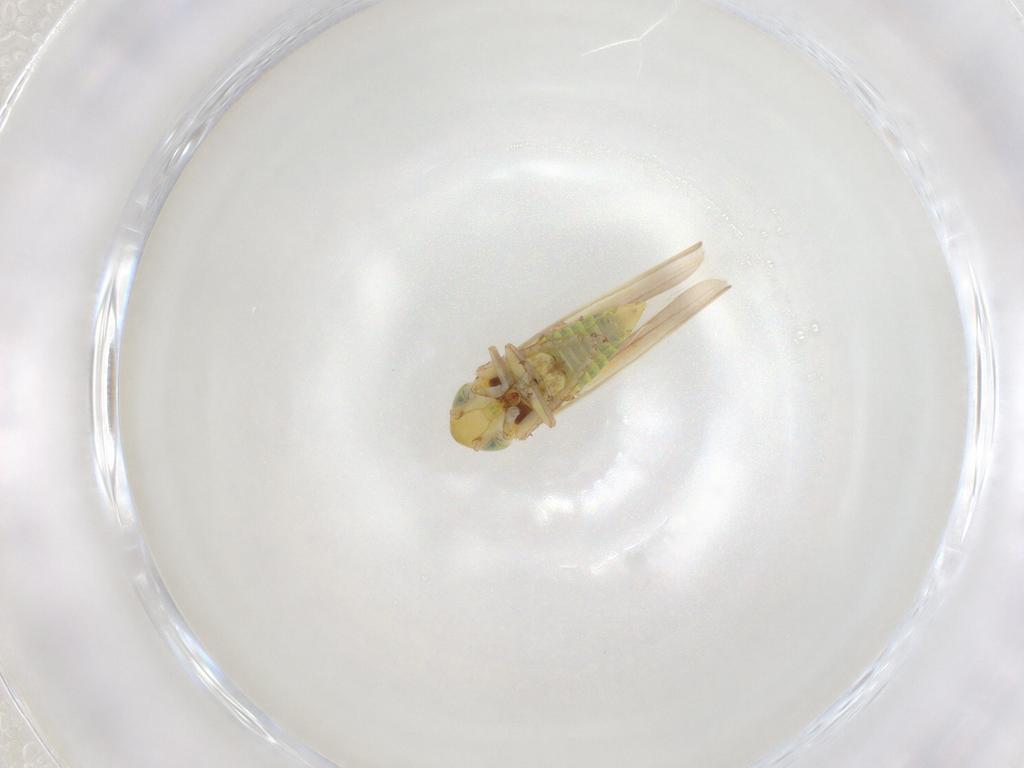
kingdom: Animalia
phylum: Arthropoda
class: Insecta
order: Hemiptera
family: Cicadellidae
